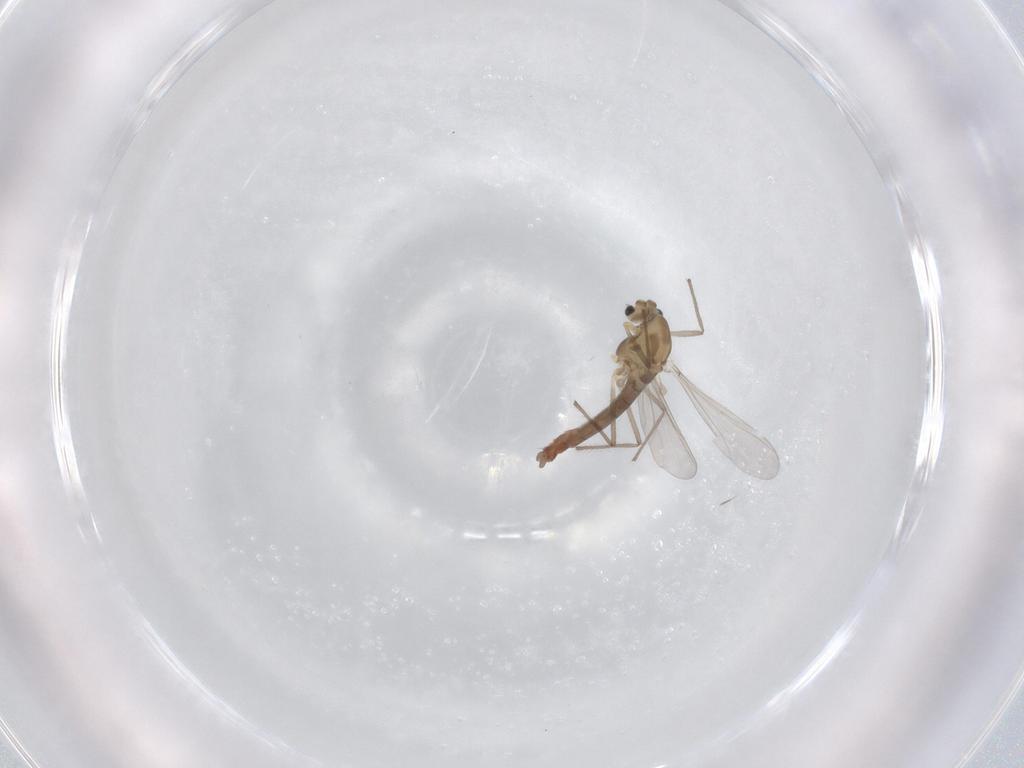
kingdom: Animalia
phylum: Arthropoda
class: Insecta
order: Diptera
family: Chironomidae
